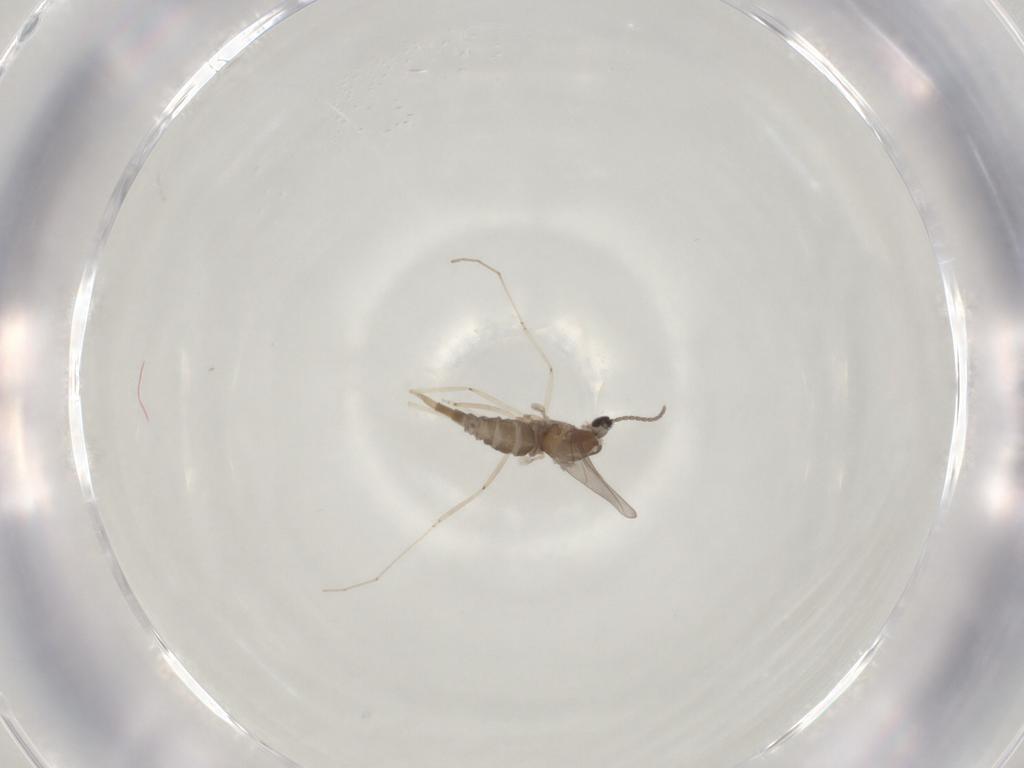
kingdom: Animalia
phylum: Arthropoda
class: Insecta
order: Diptera
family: Cecidomyiidae
